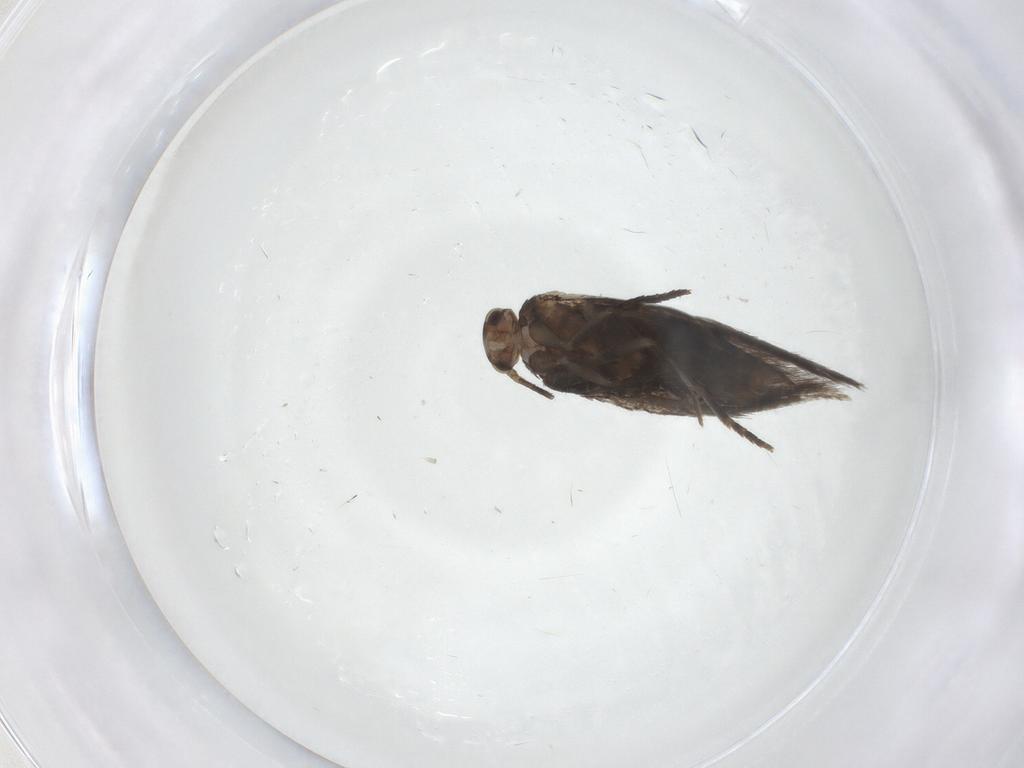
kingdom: Animalia
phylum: Arthropoda
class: Insecta
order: Lepidoptera
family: Elachistidae
